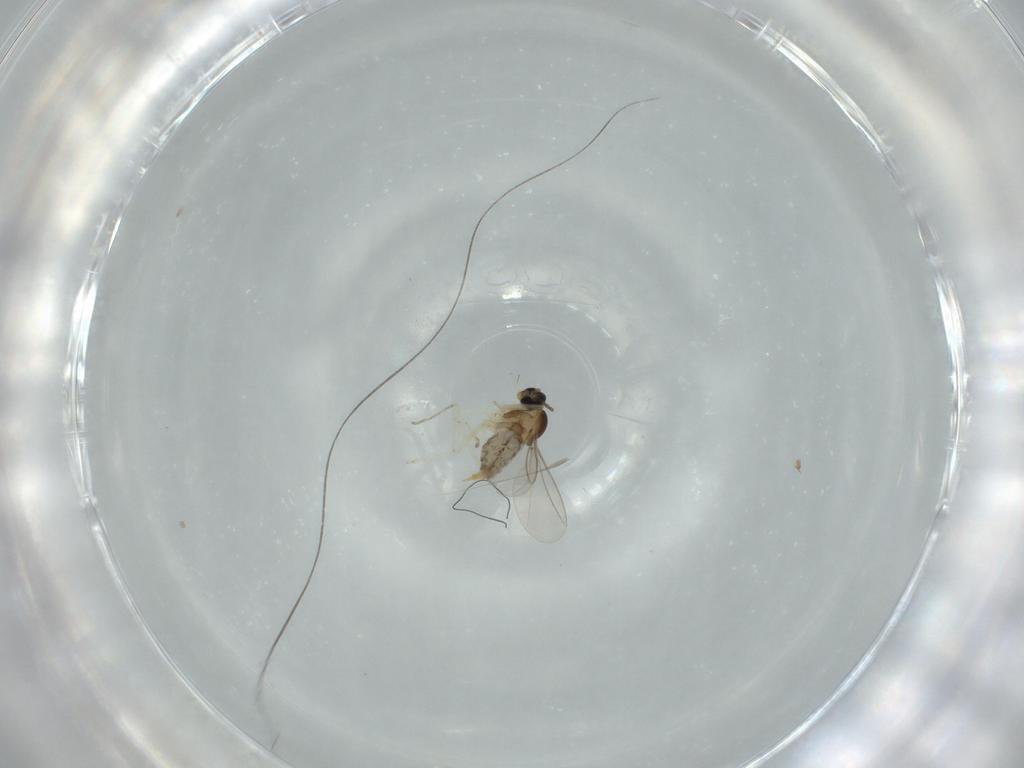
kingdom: Animalia
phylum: Arthropoda
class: Insecta
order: Diptera
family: Cecidomyiidae
